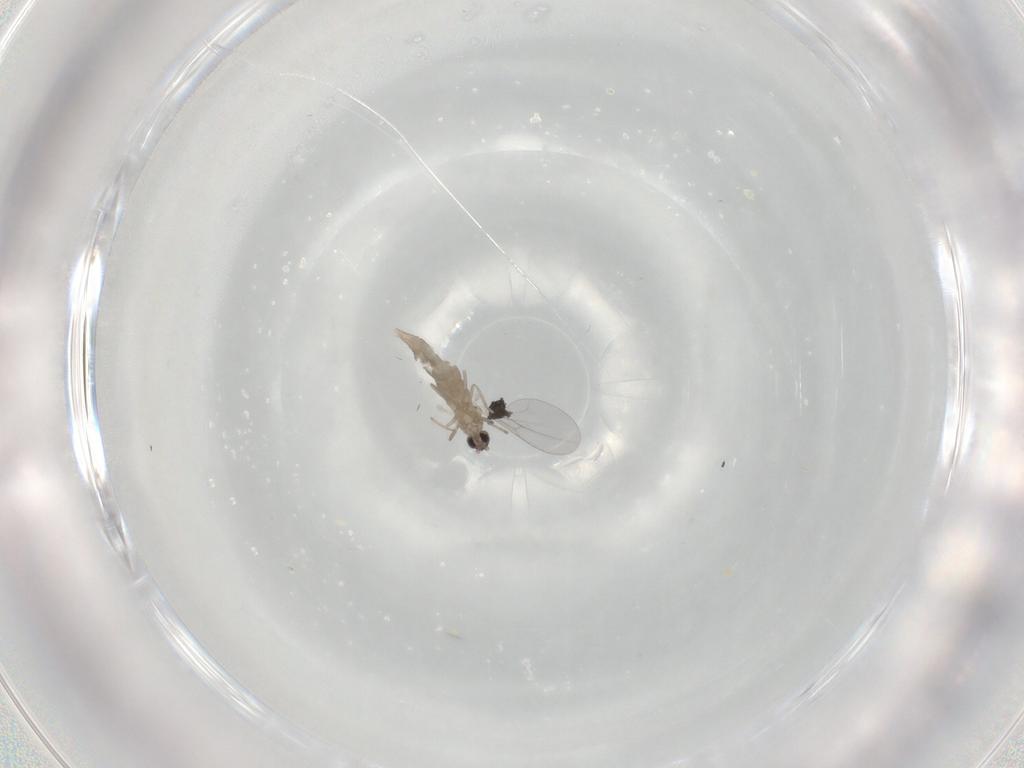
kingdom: Animalia
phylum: Arthropoda
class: Insecta
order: Diptera
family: Cecidomyiidae
